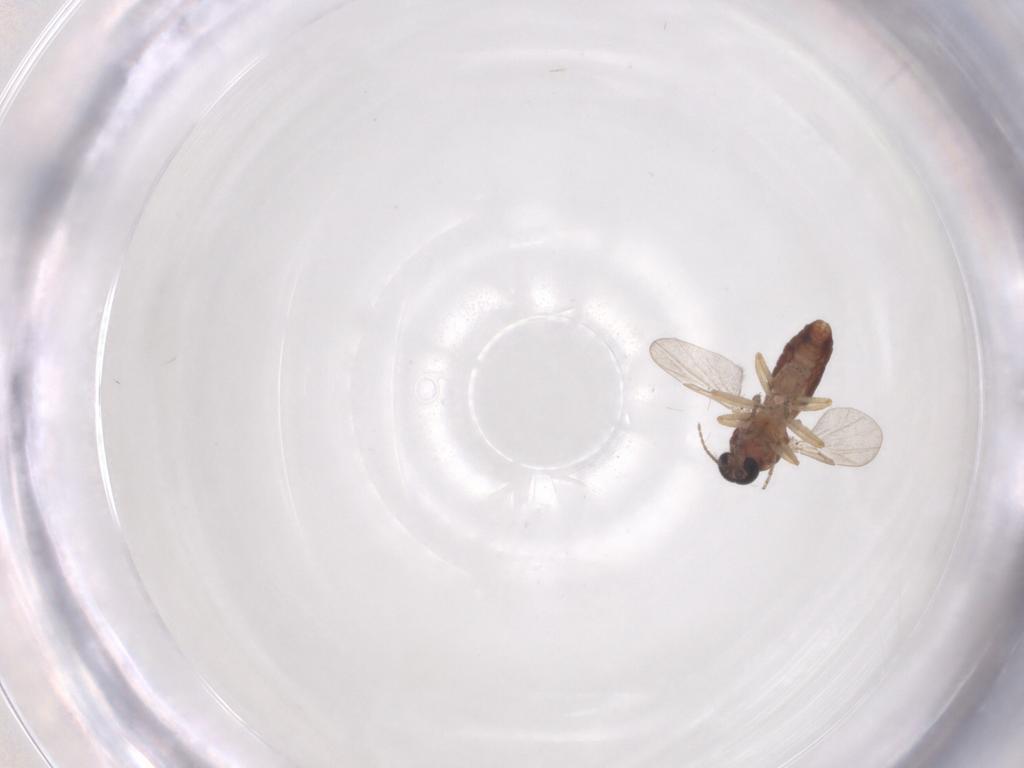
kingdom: Animalia
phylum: Arthropoda
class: Insecta
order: Diptera
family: Ceratopogonidae
